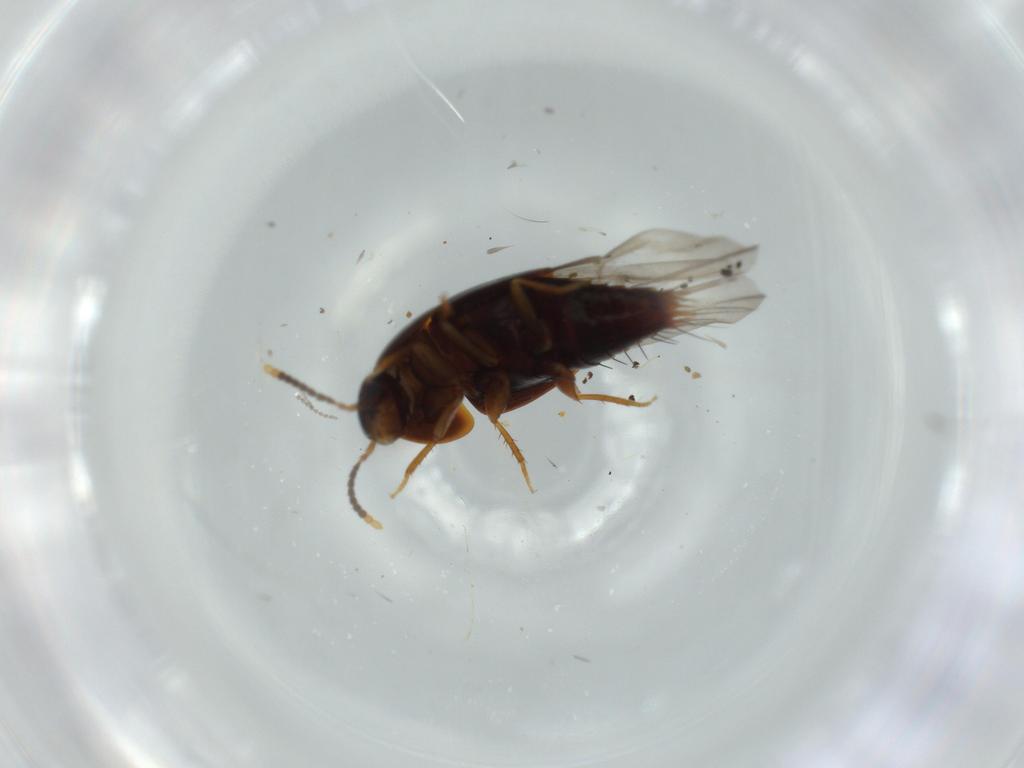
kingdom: Animalia
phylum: Arthropoda
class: Insecta
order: Coleoptera
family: Staphylinidae
